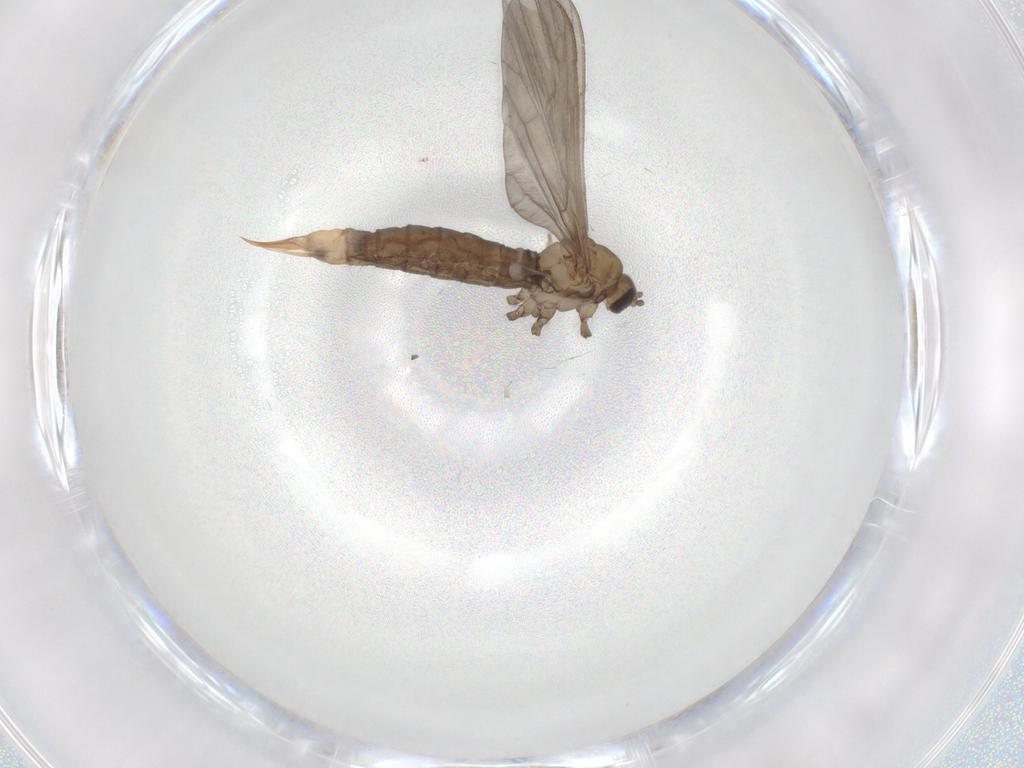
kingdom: Animalia
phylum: Arthropoda
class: Insecta
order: Diptera
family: Limoniidae
